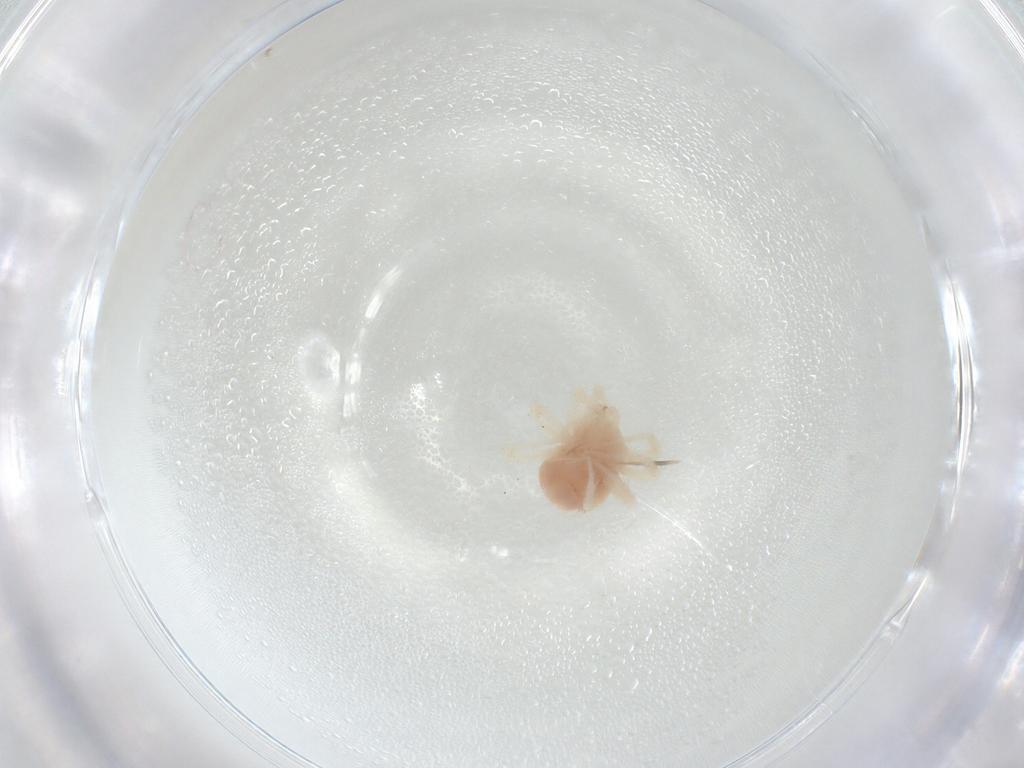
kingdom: Animalia
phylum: Arthropoda
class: Arachnida
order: Trombidiformes
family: Anystidae
